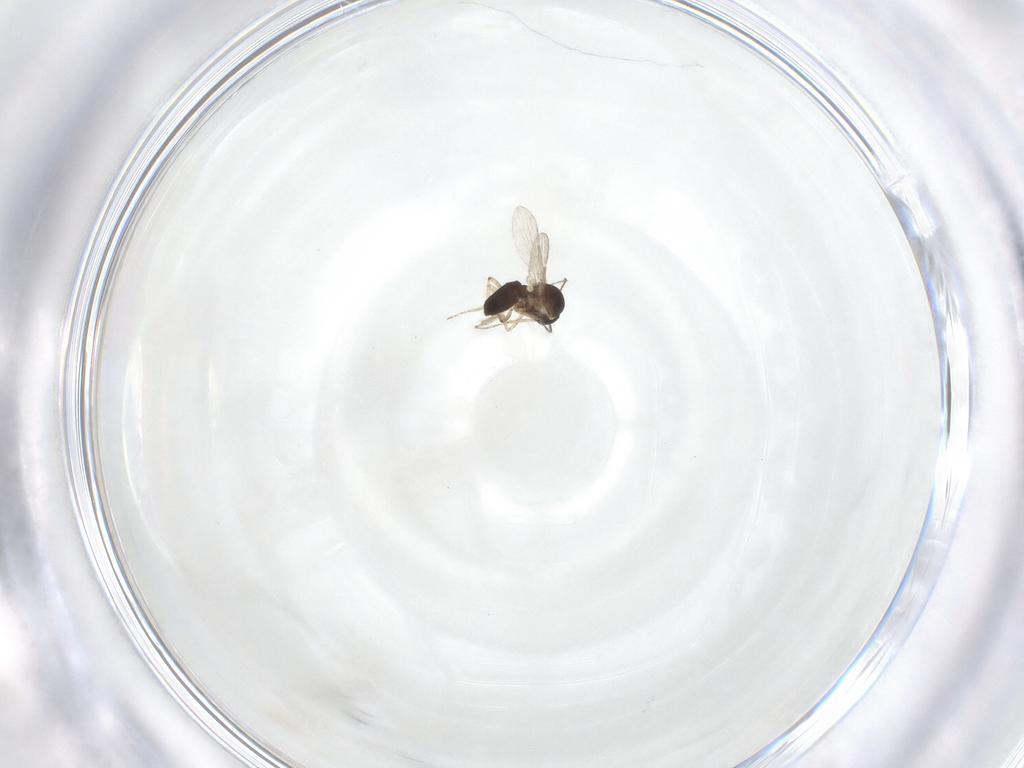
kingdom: Animalia
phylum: Arthropoda
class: Insecta
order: Diptera
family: Ceratopogonidae
